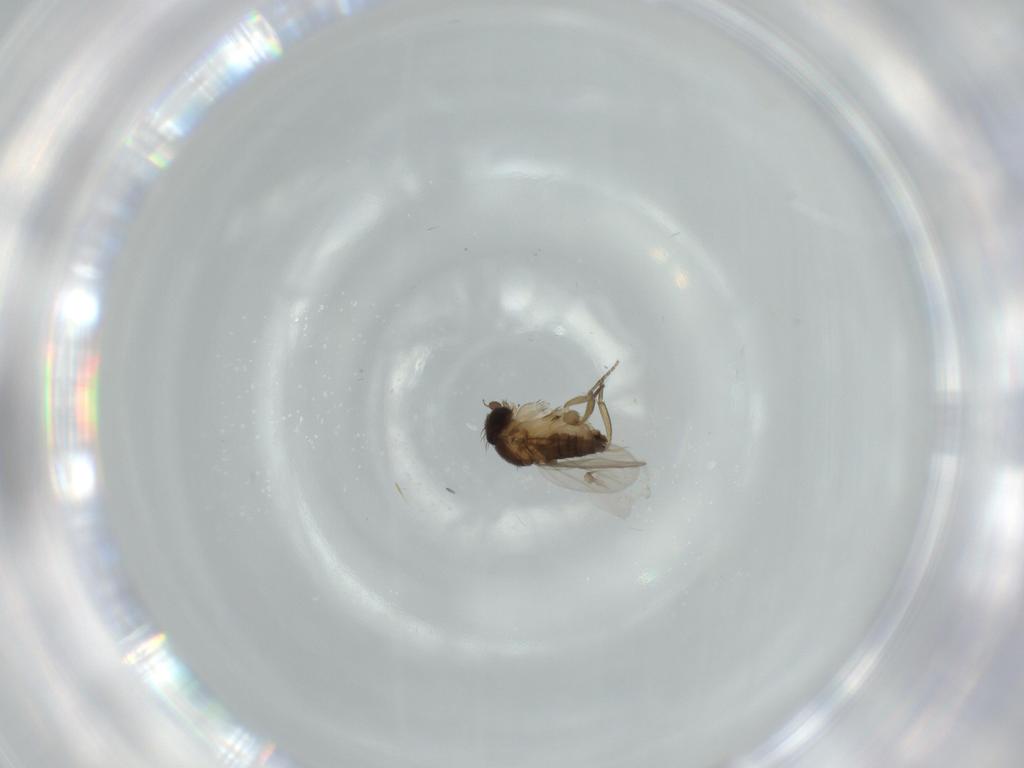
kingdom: Animalia
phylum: Arthropoda
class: Insecta
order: Diptera
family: Phoridae
